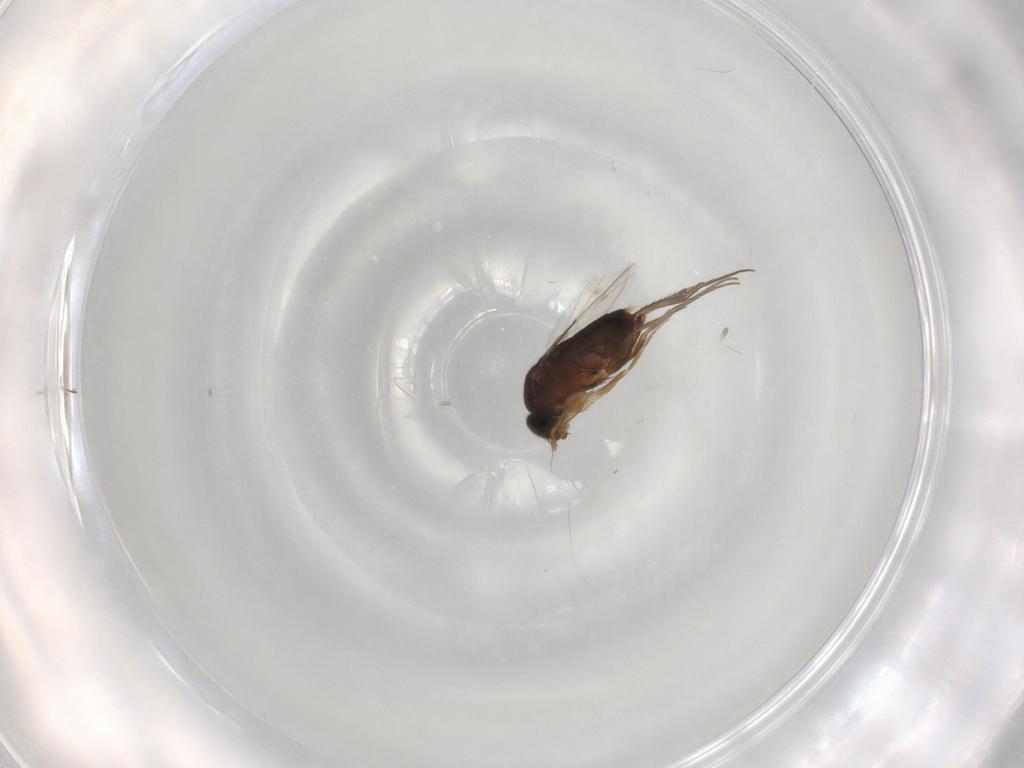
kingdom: Animalia
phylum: Arthropoda
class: Insecta
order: Diptera
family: Phoridae
